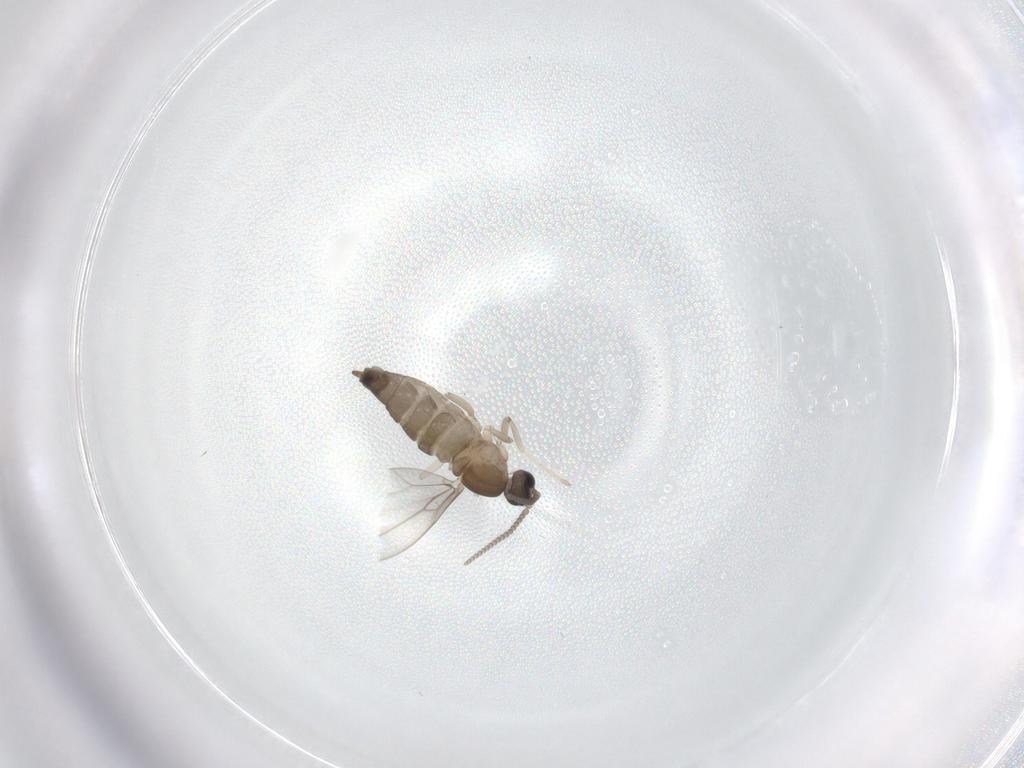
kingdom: Animalia
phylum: Arthropoda
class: Insecta
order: Diptera
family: Cecidomyiidae
